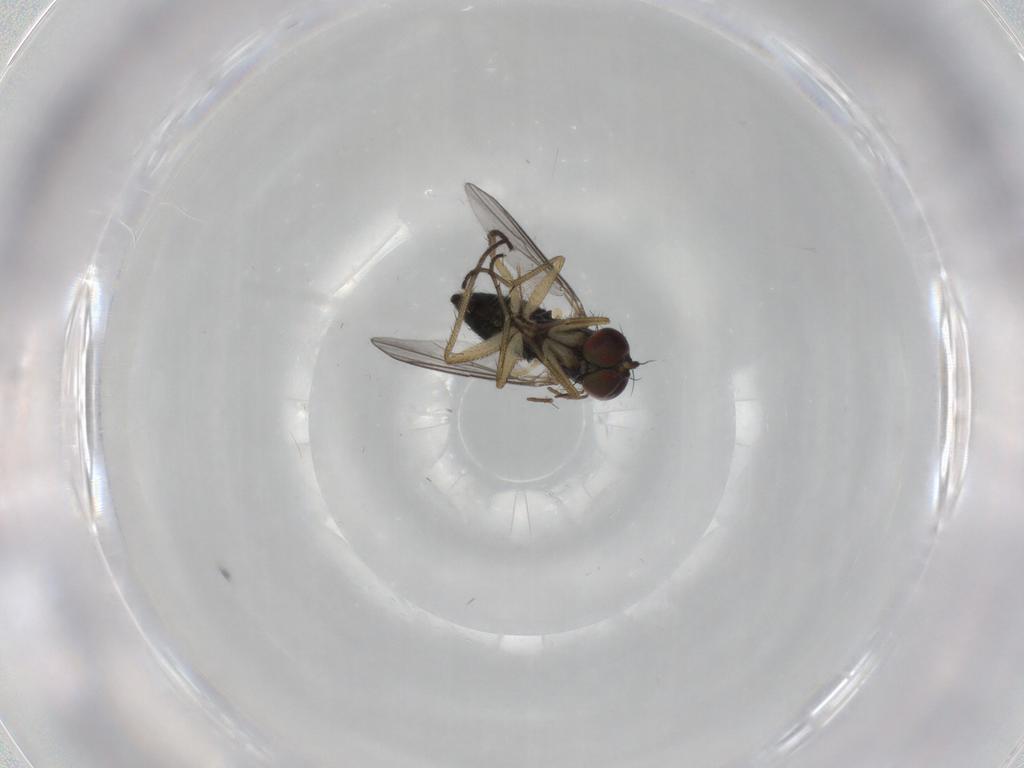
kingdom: Animalia
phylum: Arthropoda
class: Insecta
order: Diptera
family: Dolichopodidae
